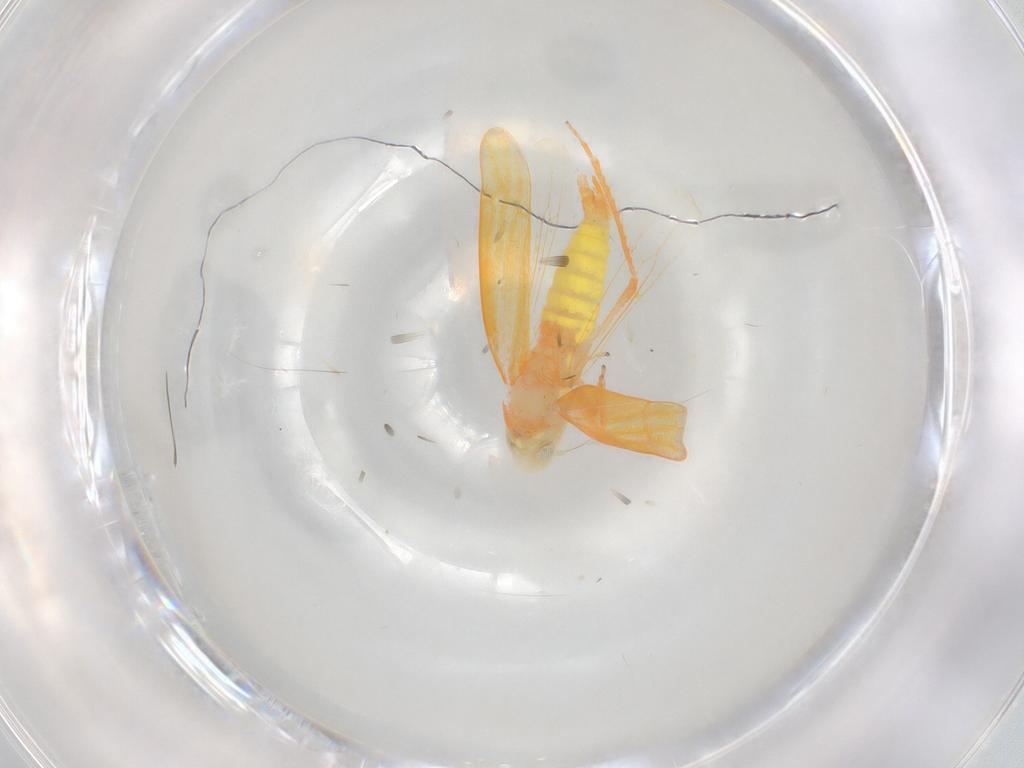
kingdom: Animalia
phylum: Arthropoda
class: Insecta
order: Hemiptera
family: Cicadellidae
